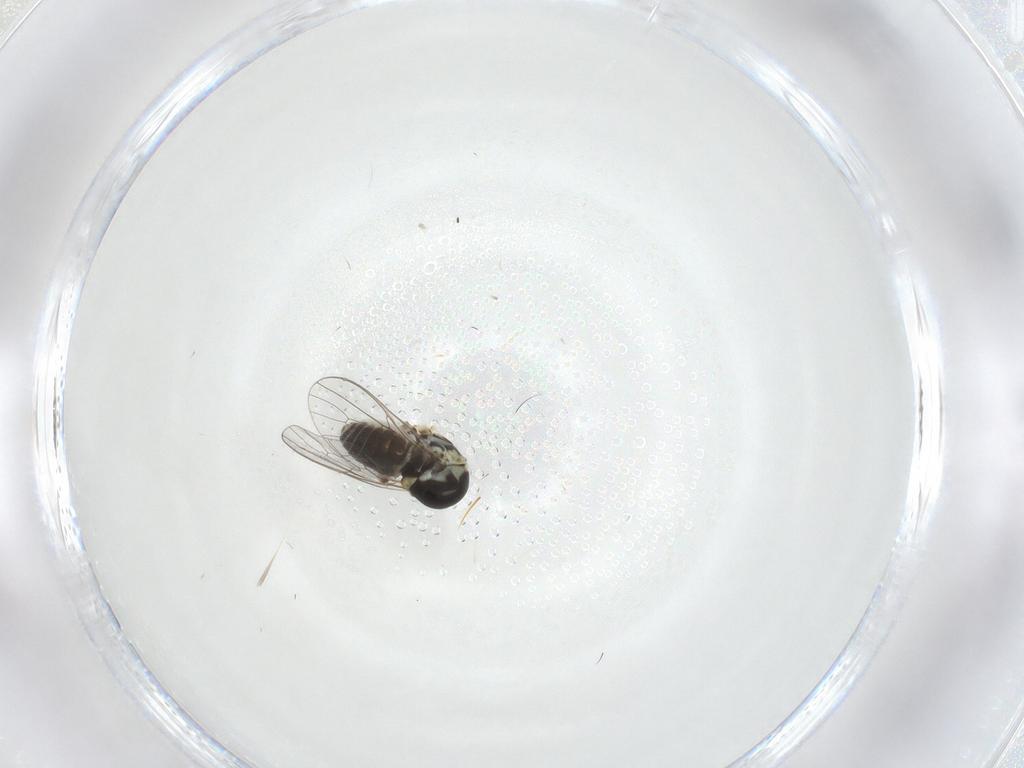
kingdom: Animalia
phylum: Arthropoda
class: Insecta
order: Diptera
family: Mythicomyiidae
